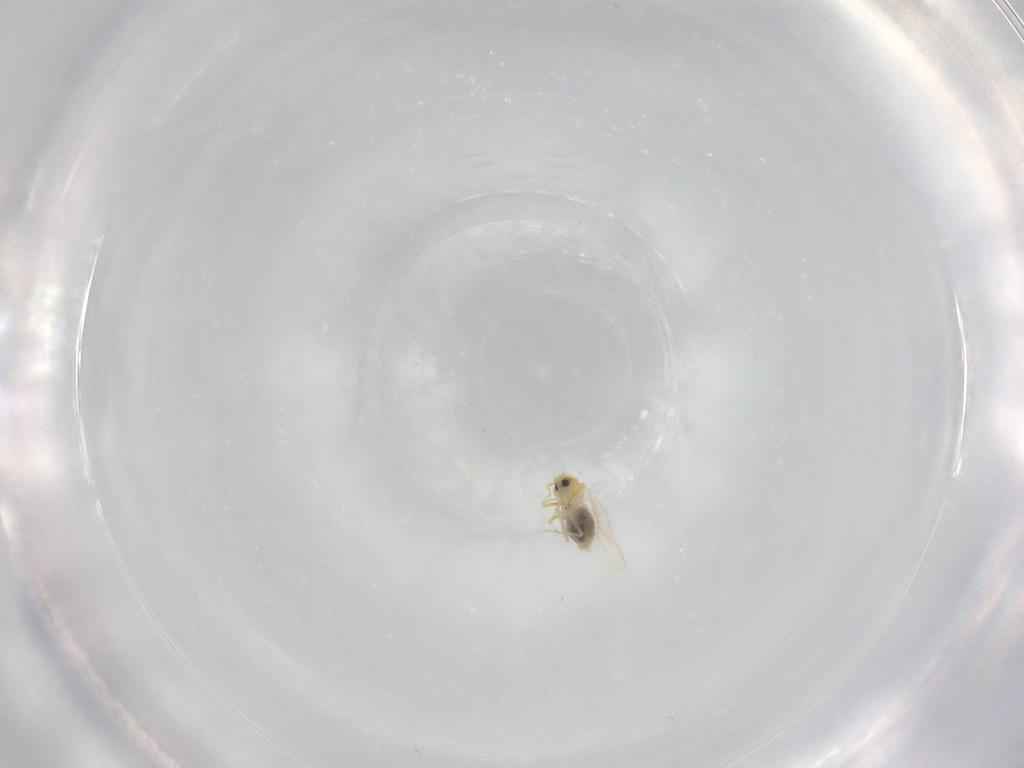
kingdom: Animalia
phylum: Arthropoda
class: Insecta
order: Hemiptera
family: Aleyrodidae
